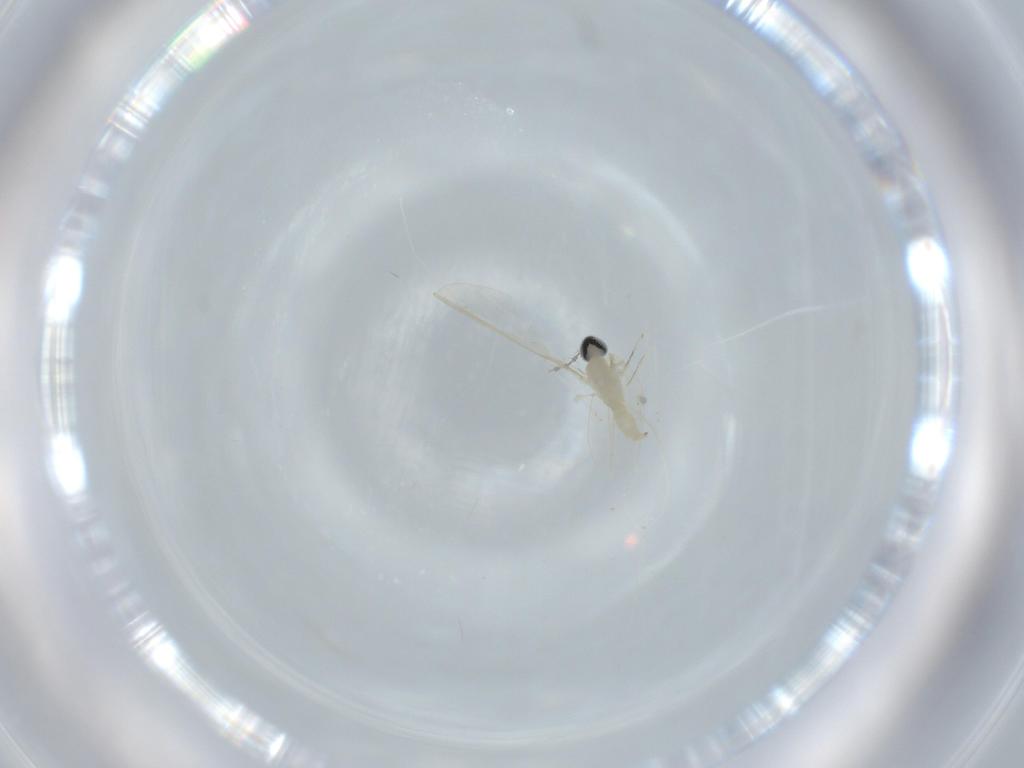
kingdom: Animalia
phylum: Arthropoda
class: Insecta
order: Diptera
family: Cecidomyiidae
